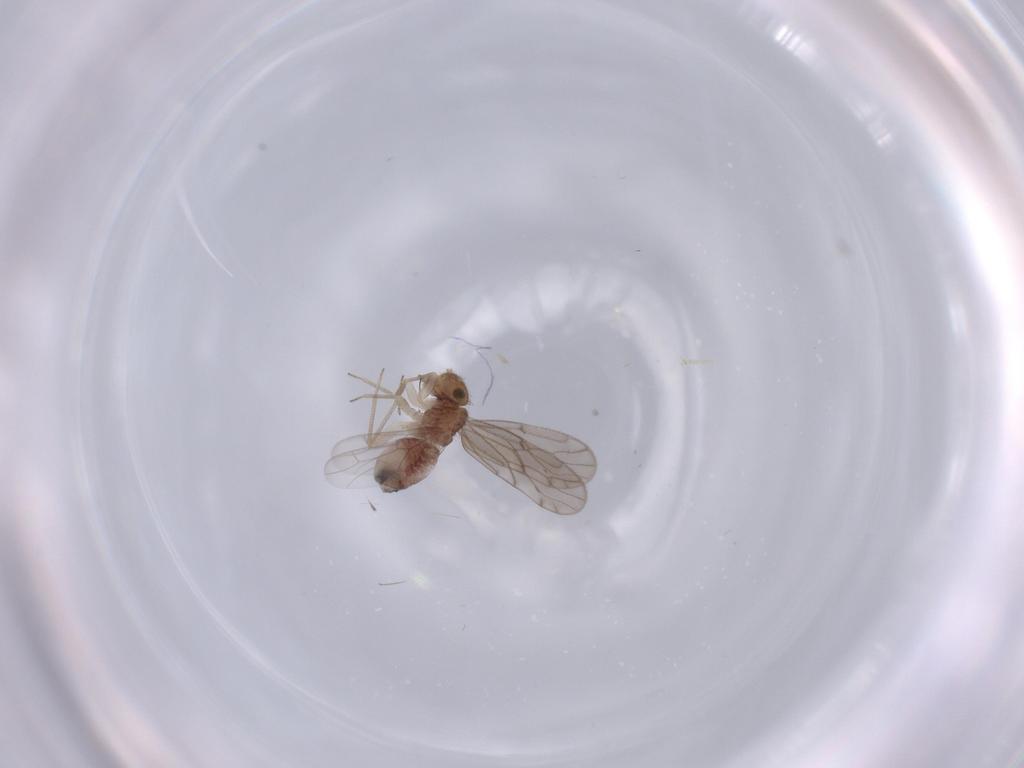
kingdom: Animalia
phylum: Arthropoda
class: Insecta
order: Psocodea
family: Ectopsocidae
